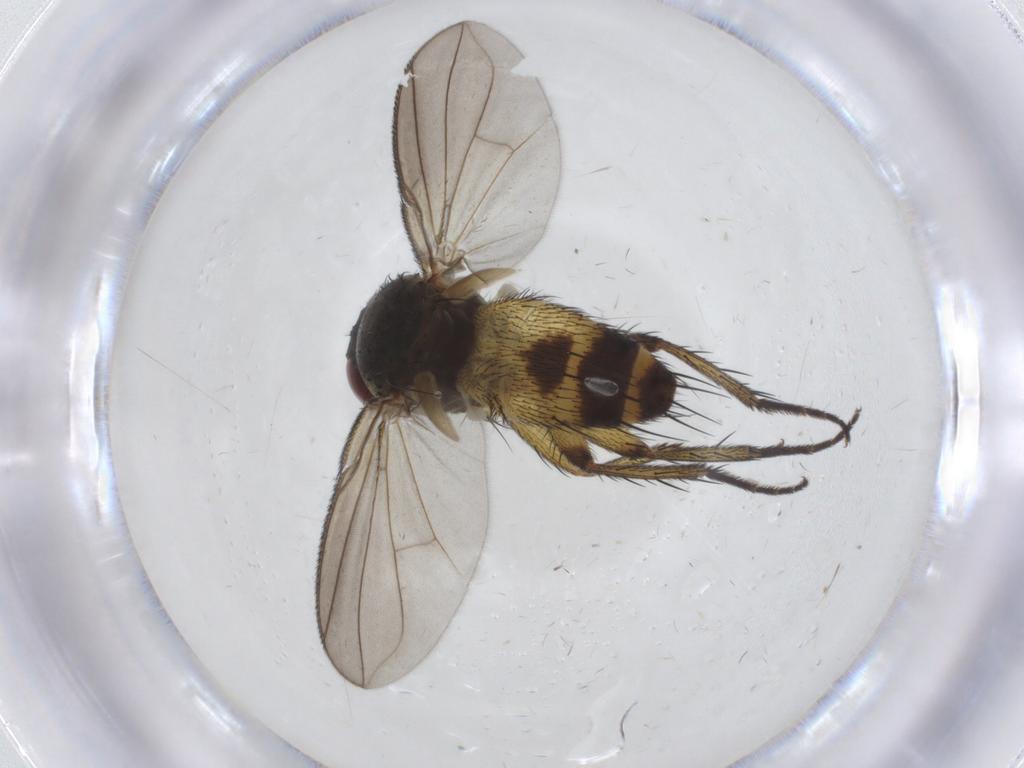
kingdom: Animalia
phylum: Arthropoda
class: Insecta
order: Diptera
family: Tachinidae
